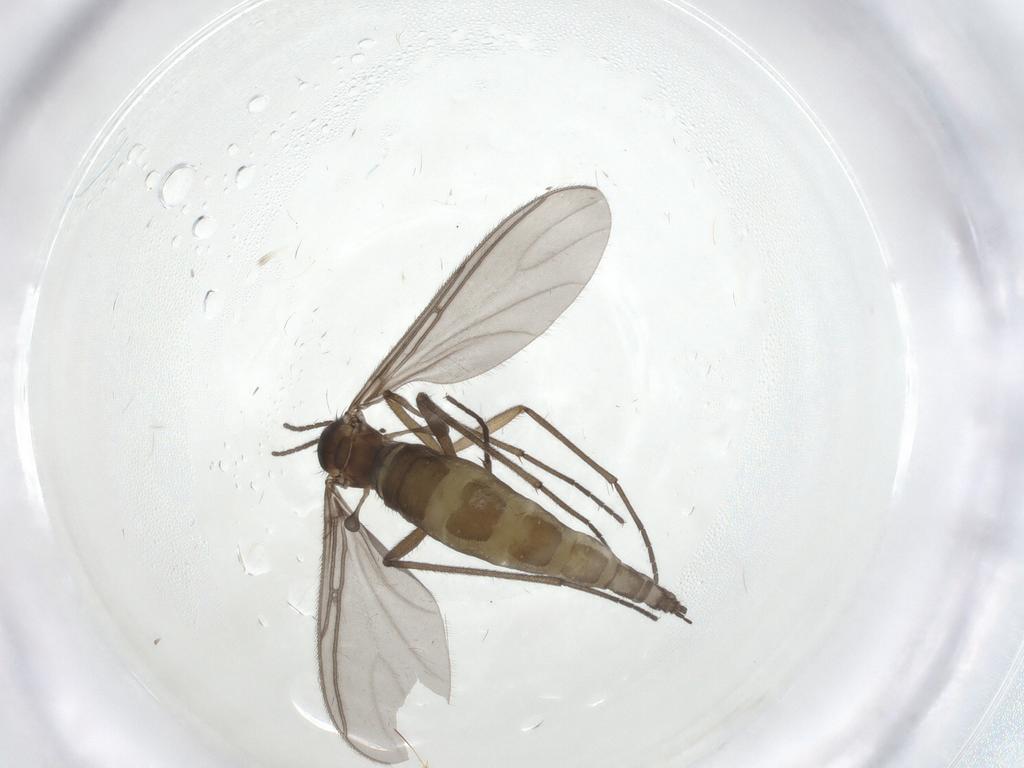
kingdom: Animalia
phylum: Arthropoda
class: Insecta
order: Diptera
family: Sciaridae
